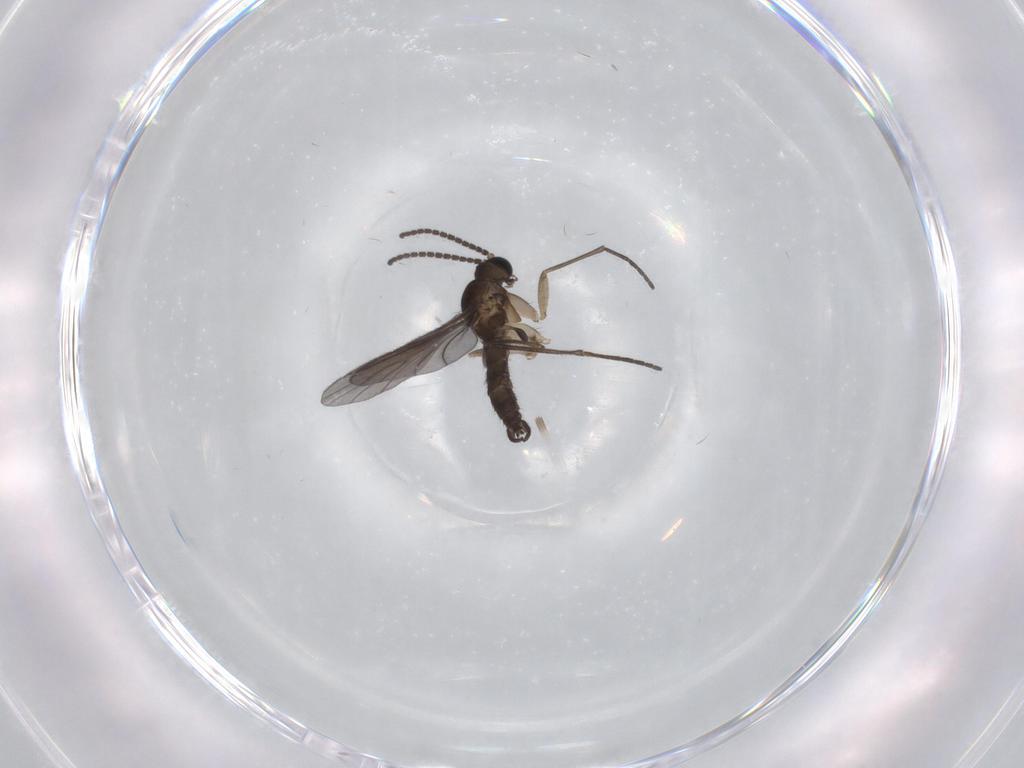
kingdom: Animalia
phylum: Arthropoda
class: Insecta
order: Diptera
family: Sciaridae
